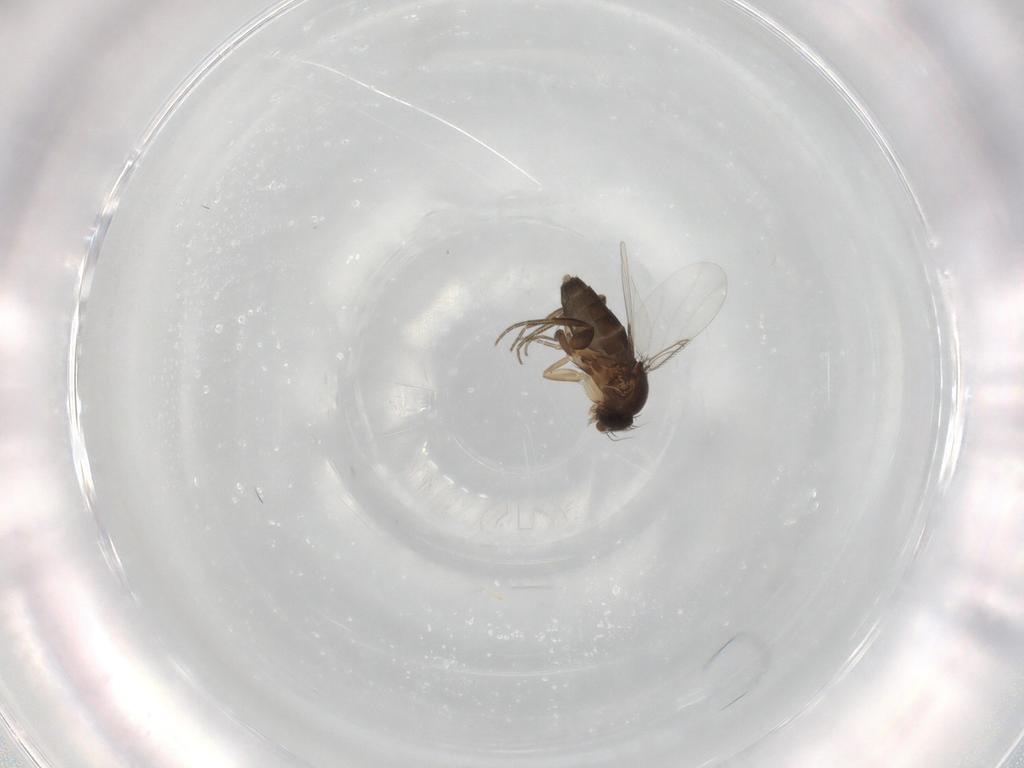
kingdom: Animalia
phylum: Arthropoda
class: Insecta
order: Diptera
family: Phoridae
